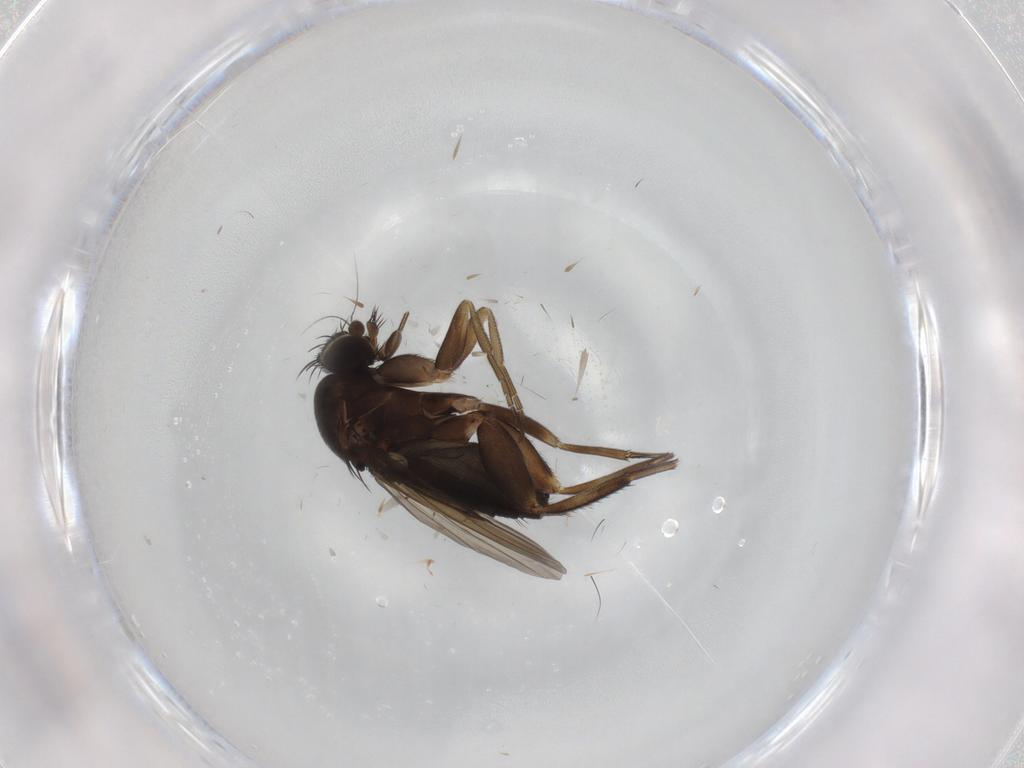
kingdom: Animalia
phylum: Arthropoda
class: Insecta
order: Diptera
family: Phoridae
